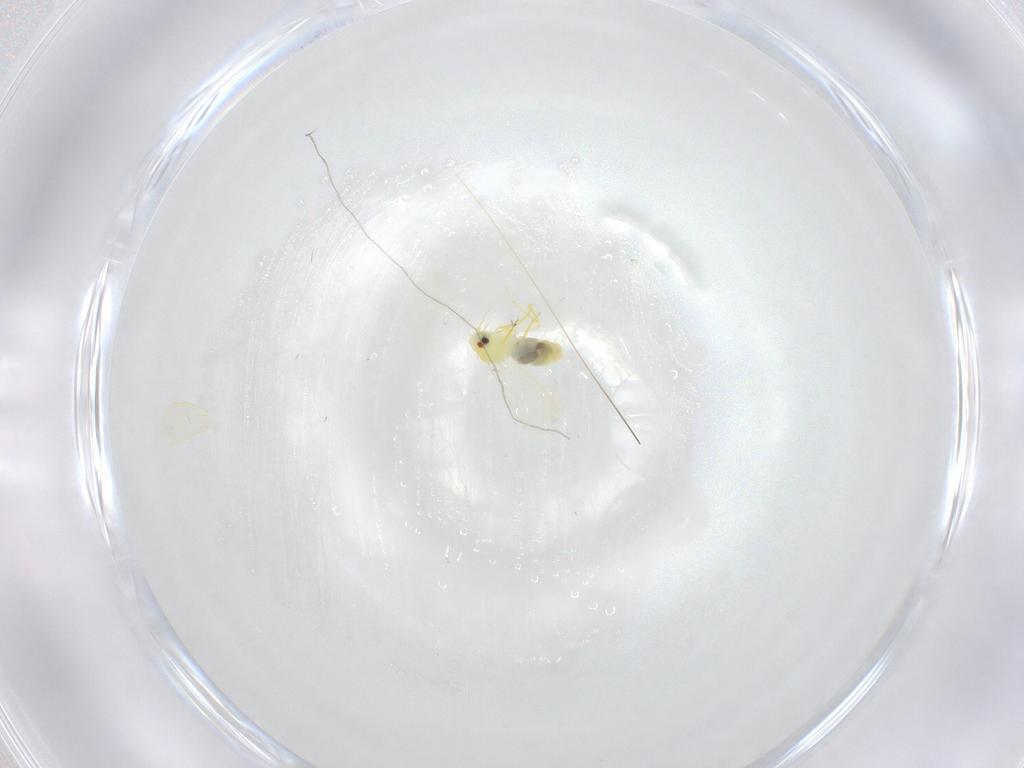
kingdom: Animalia
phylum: Arthropoda
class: Insecta
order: Hemiptera
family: Aleyrodidae
